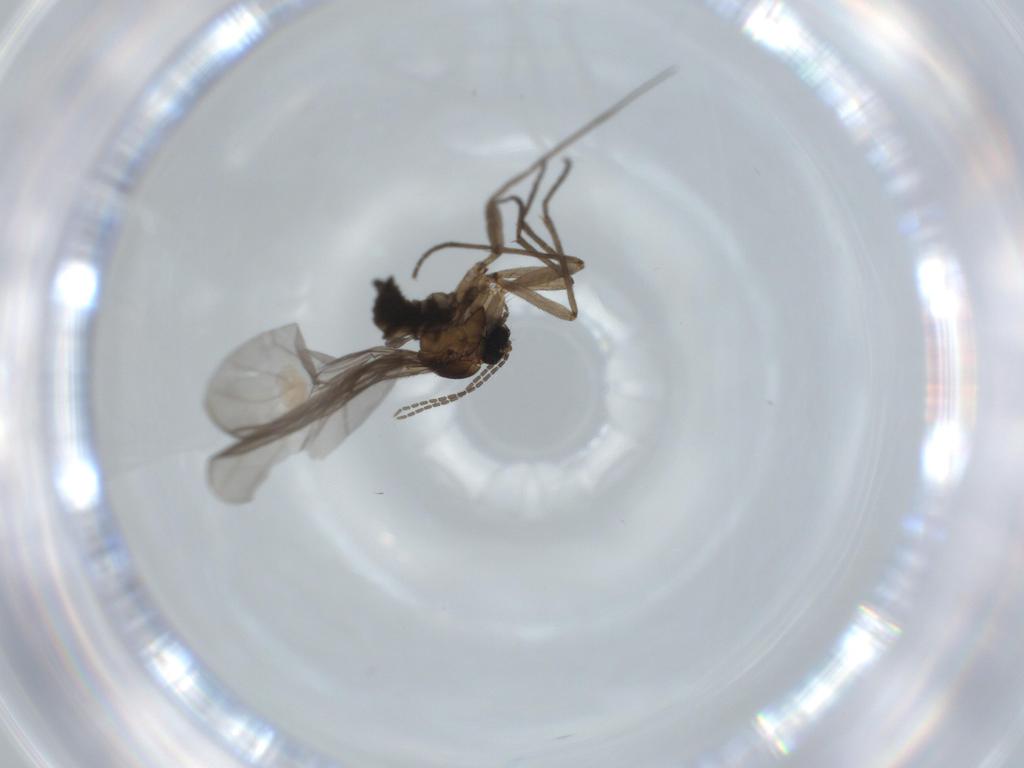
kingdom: Animalia
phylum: Arthropoda
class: Insecta
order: Diptera
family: Sciaridae
